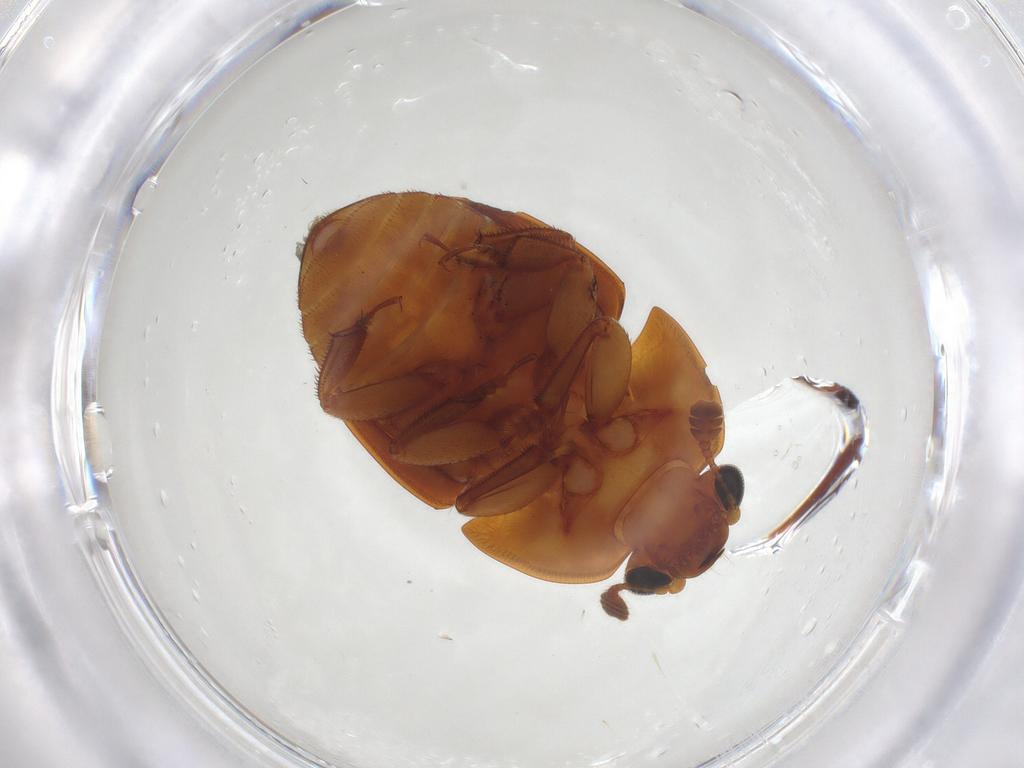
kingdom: Animalia
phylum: Arthropoda
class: Insecta
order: Coleoptera
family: Nitidulidae
